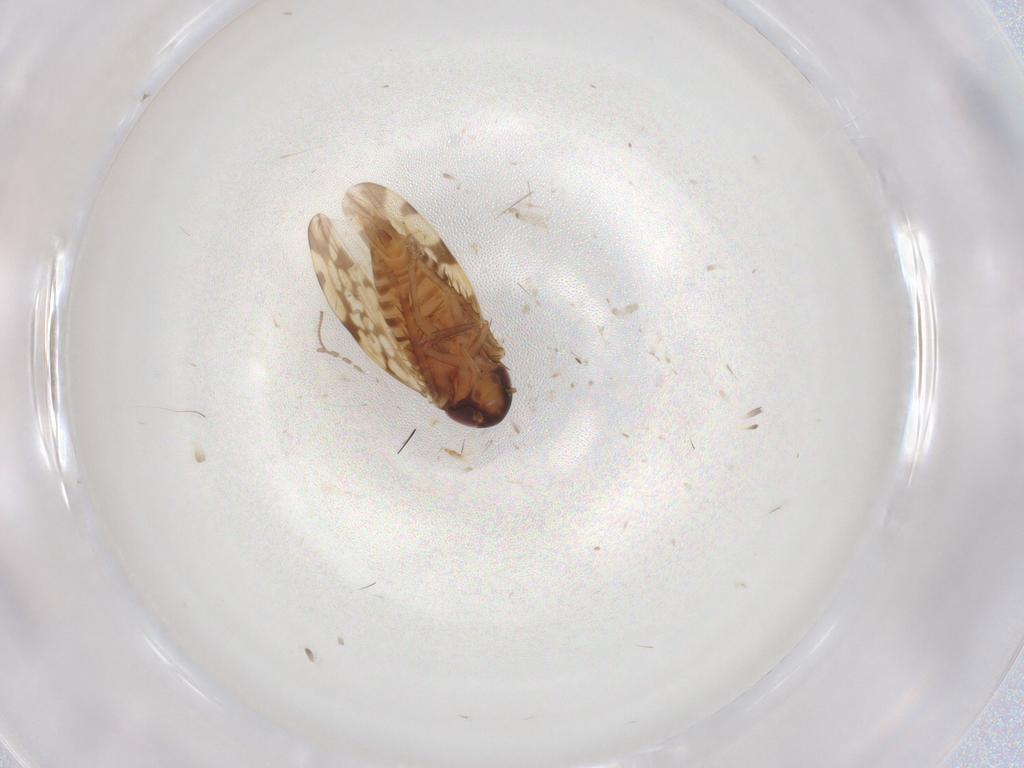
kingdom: Animalia
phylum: Arthropoda
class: Insecta
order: Hemiptera
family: Cicadellidae
